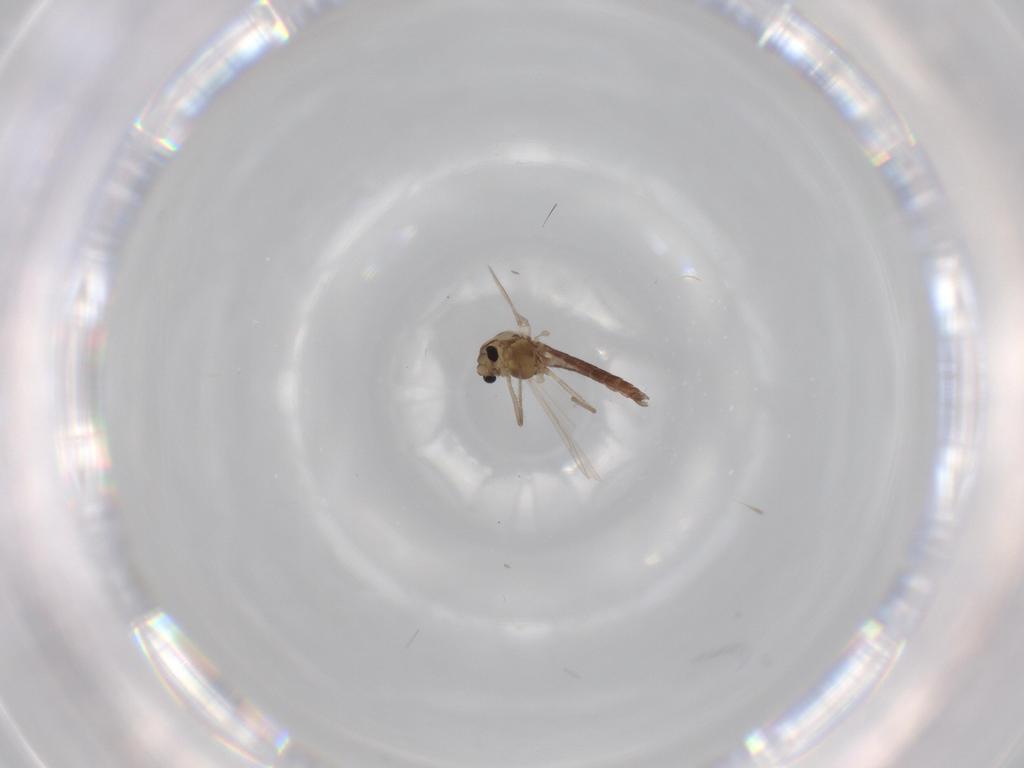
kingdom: Animalia
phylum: Arthropoda
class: Insecta
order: Diptera
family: Chironomidae
